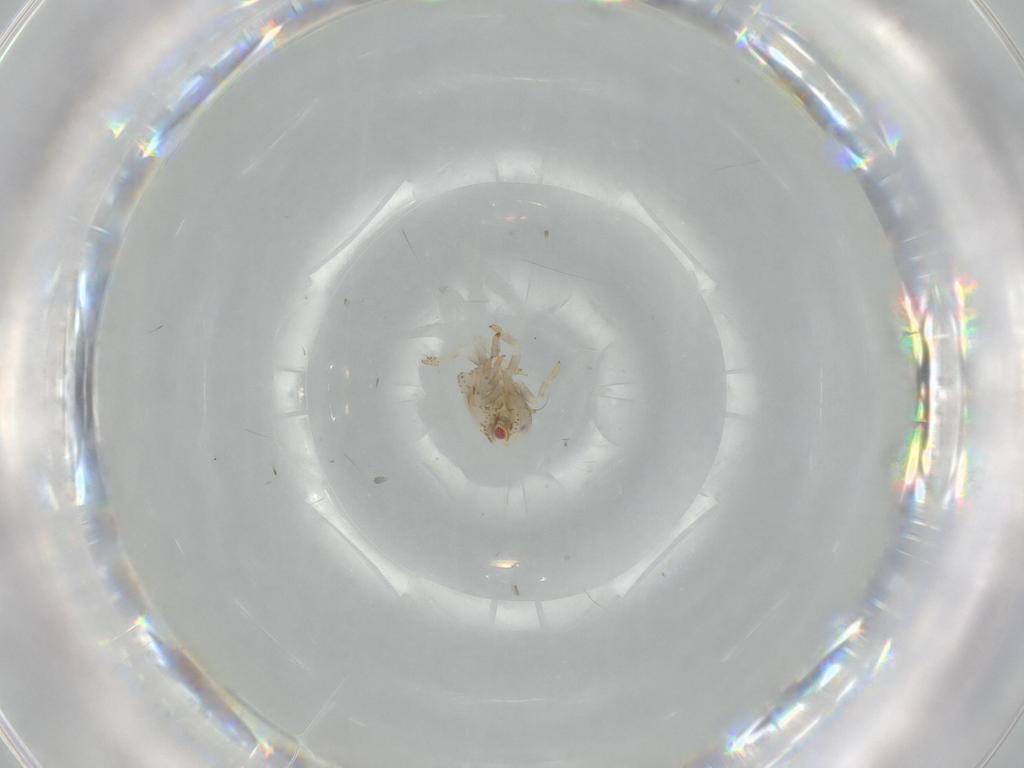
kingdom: Animalia
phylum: Arthropoda
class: Insecta
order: Hemiptera
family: Acanaloniidae
